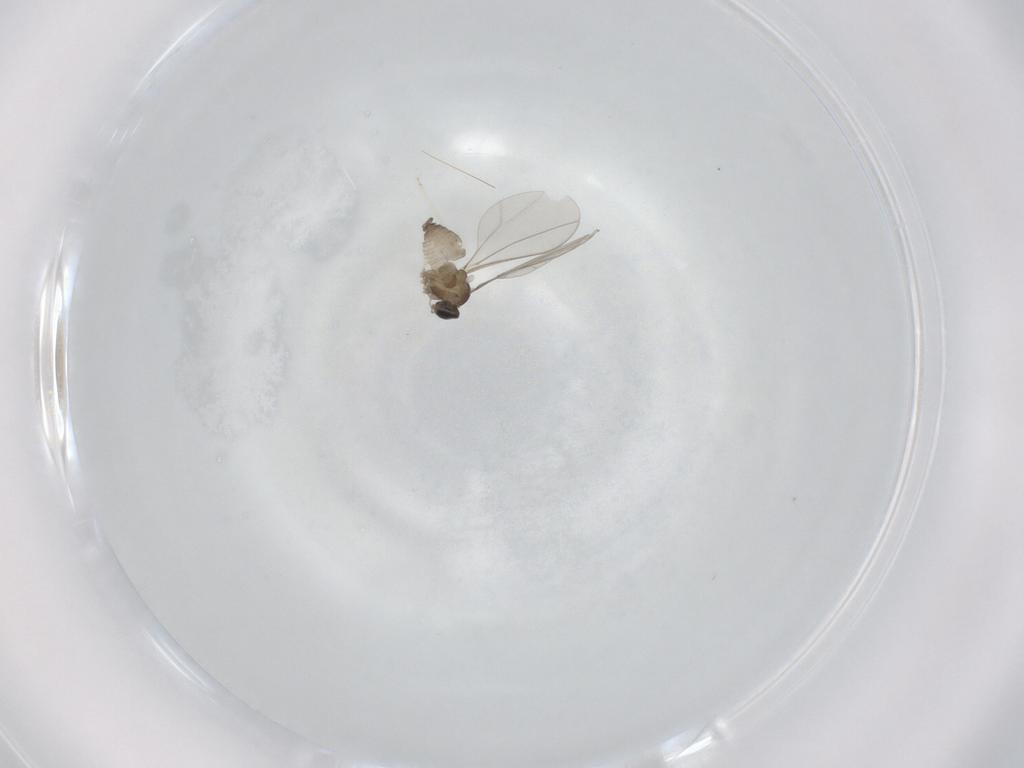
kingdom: Animalia
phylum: Arthropoda
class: Insecta
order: Diptera
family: Cecidomyiidae
